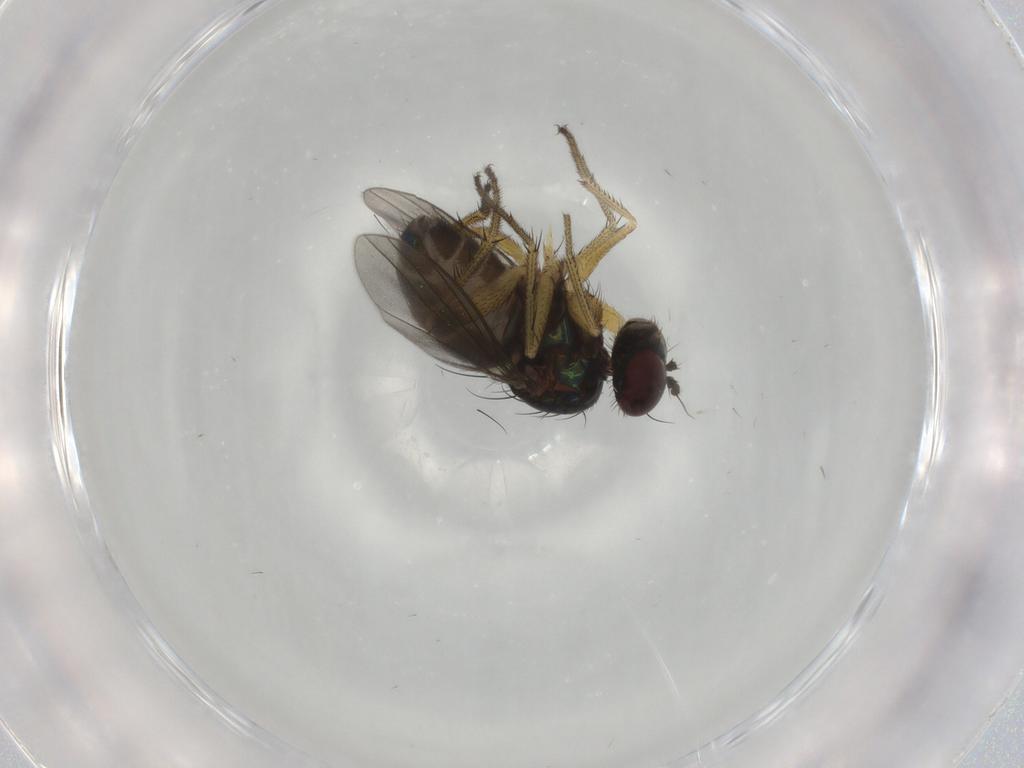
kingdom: Animalia
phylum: Arthropoda
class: Insecta
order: Diptera
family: Dolichopodidae
